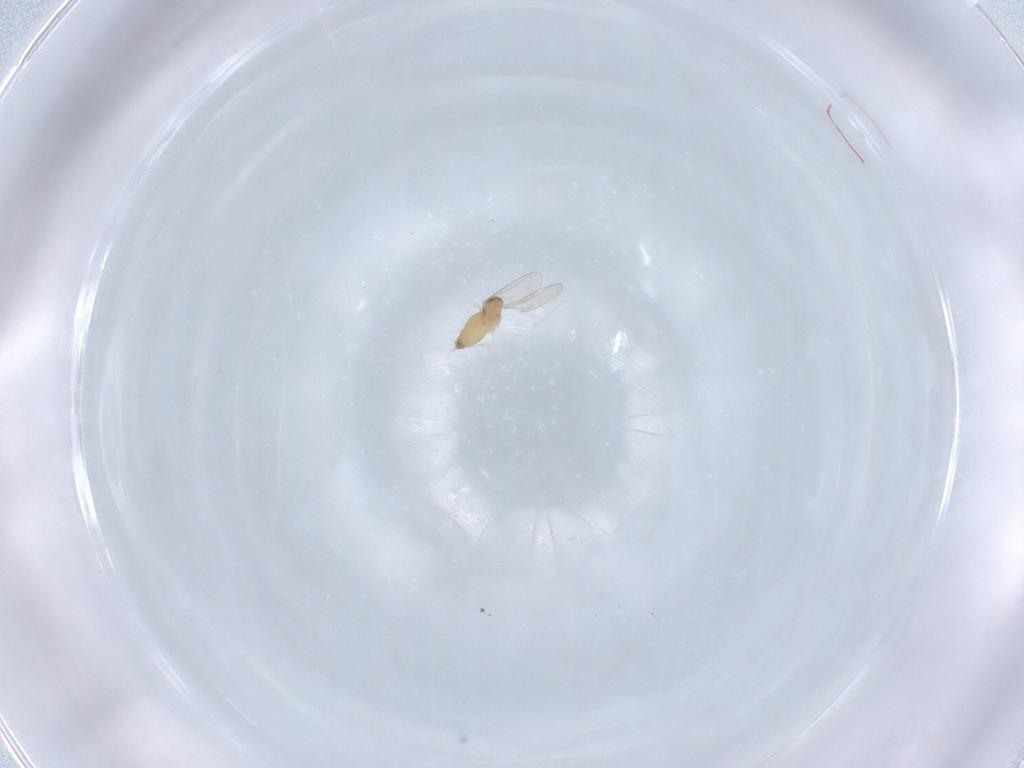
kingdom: Animalia
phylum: Arthropoda
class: Insecta
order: Diptera
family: Cecidomyiidae
